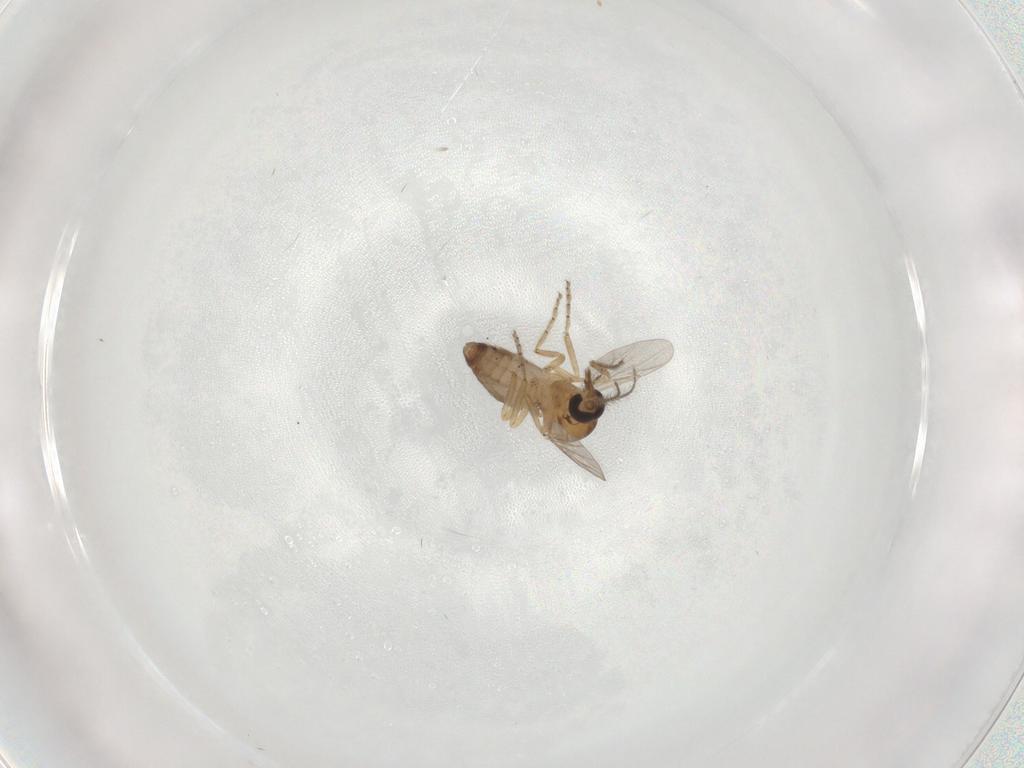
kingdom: Animalia
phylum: Arthropoda
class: Insecta
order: Diptera
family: Ceratopogonidae
